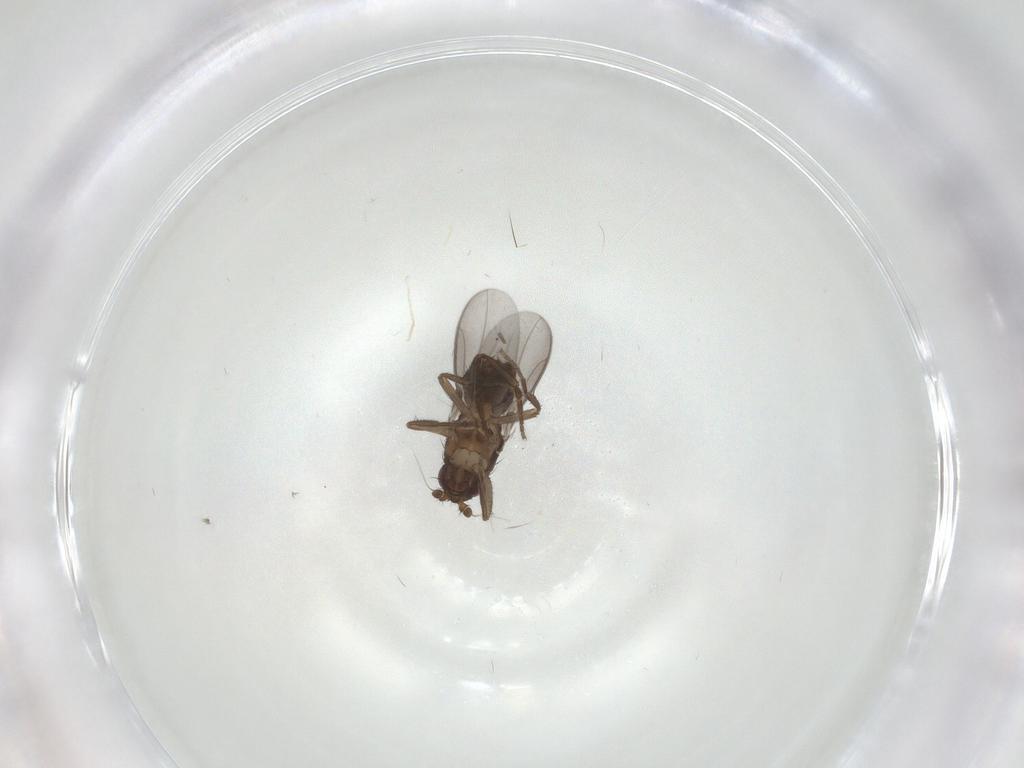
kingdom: Animalia
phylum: Arthropoda
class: Insecta
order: Diptera
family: Sphaeroceridae
